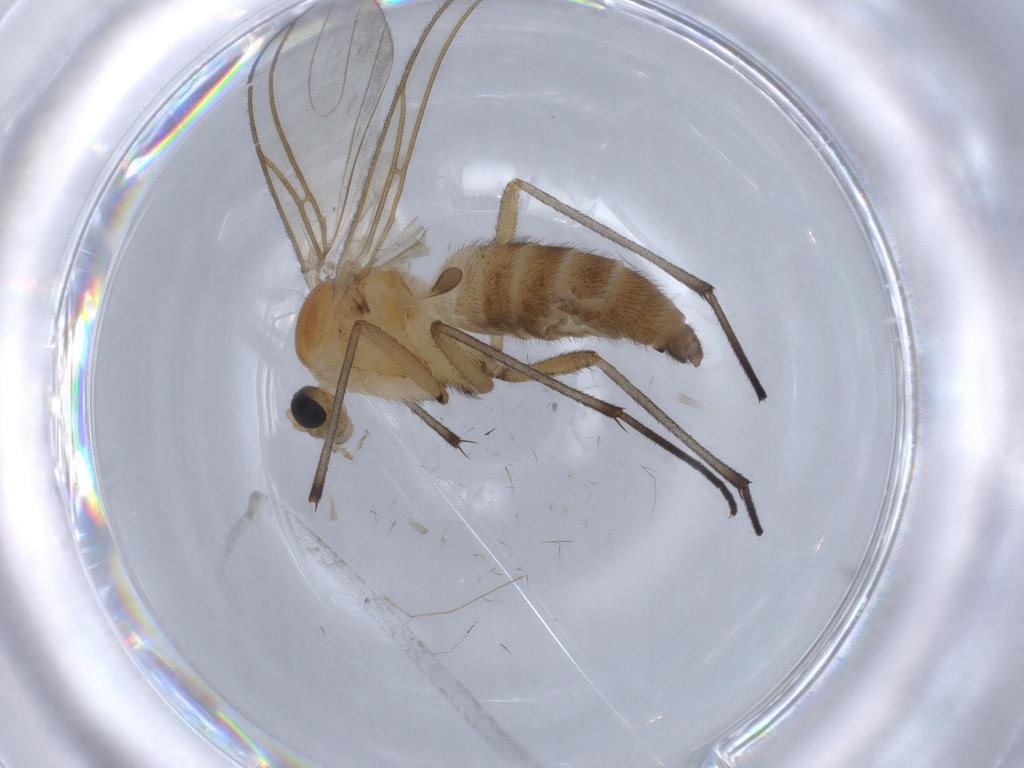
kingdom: Animalia
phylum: Arthropoda
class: Insecta
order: Diptera
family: Sciaridae
